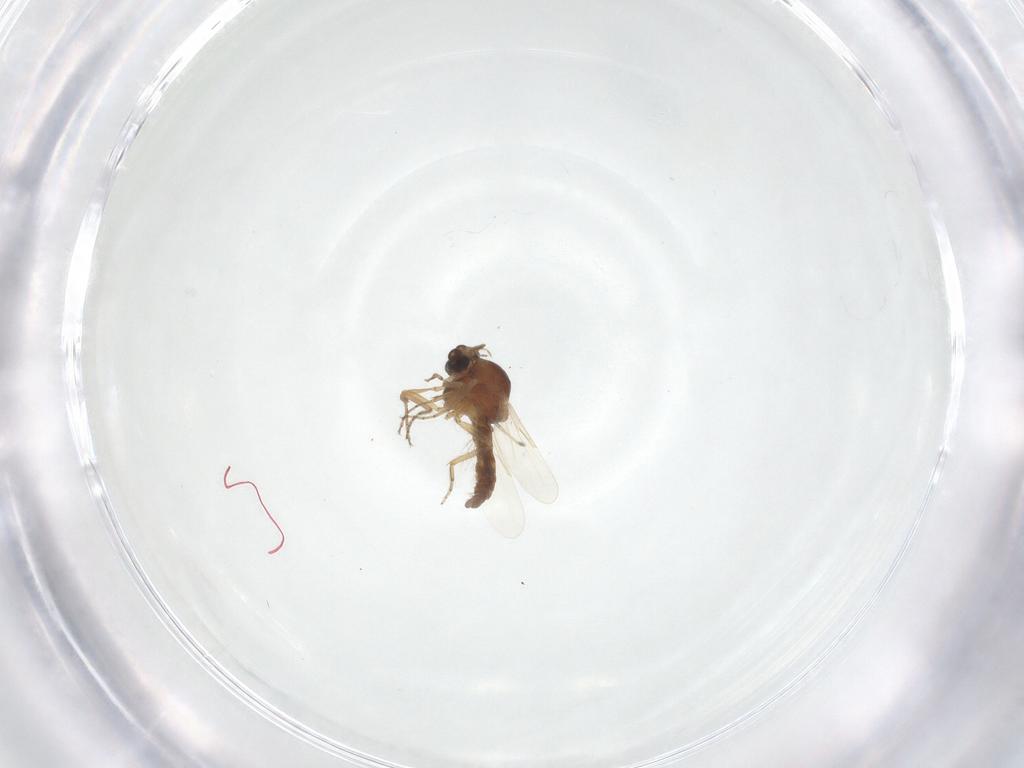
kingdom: Animalia
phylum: Arthropoda
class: Insecta
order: Diptera
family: Ceratopogonidae
